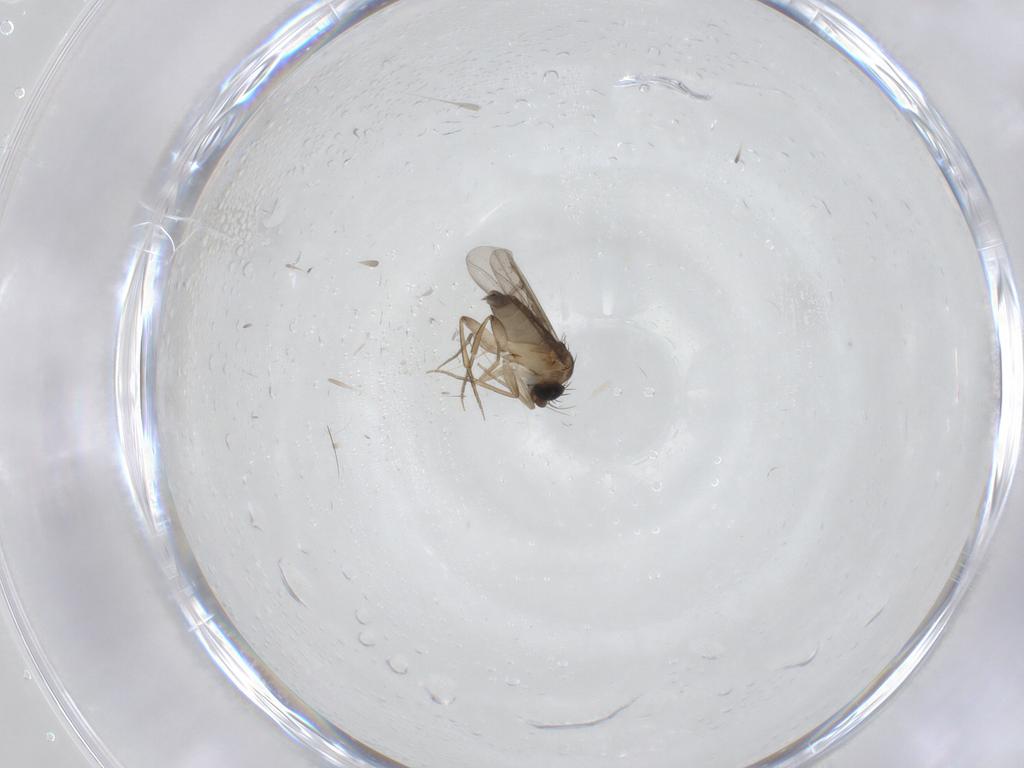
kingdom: Animalia
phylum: Arthropoda
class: Insecta
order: Diptera
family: Phoridae
